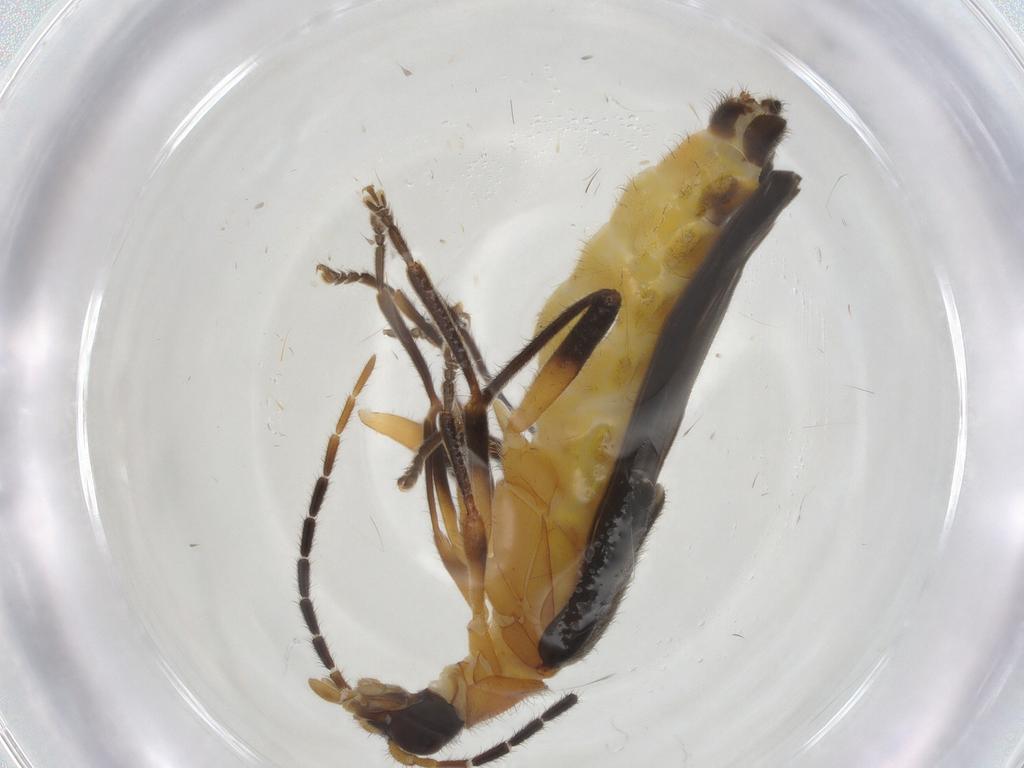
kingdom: Animalia
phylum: Arthropoda
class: Insecta
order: Coleoptera
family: Cantharidae
